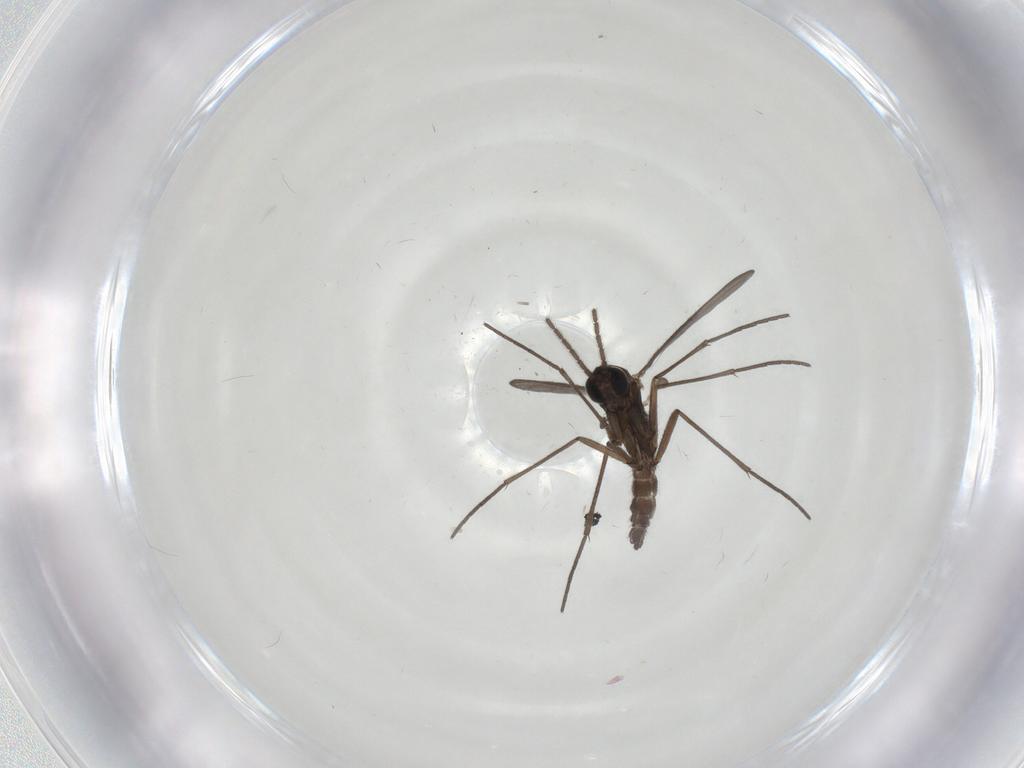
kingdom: Animalia
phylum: Arthropoda
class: Insecta
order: Diptera
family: Sciaridae
